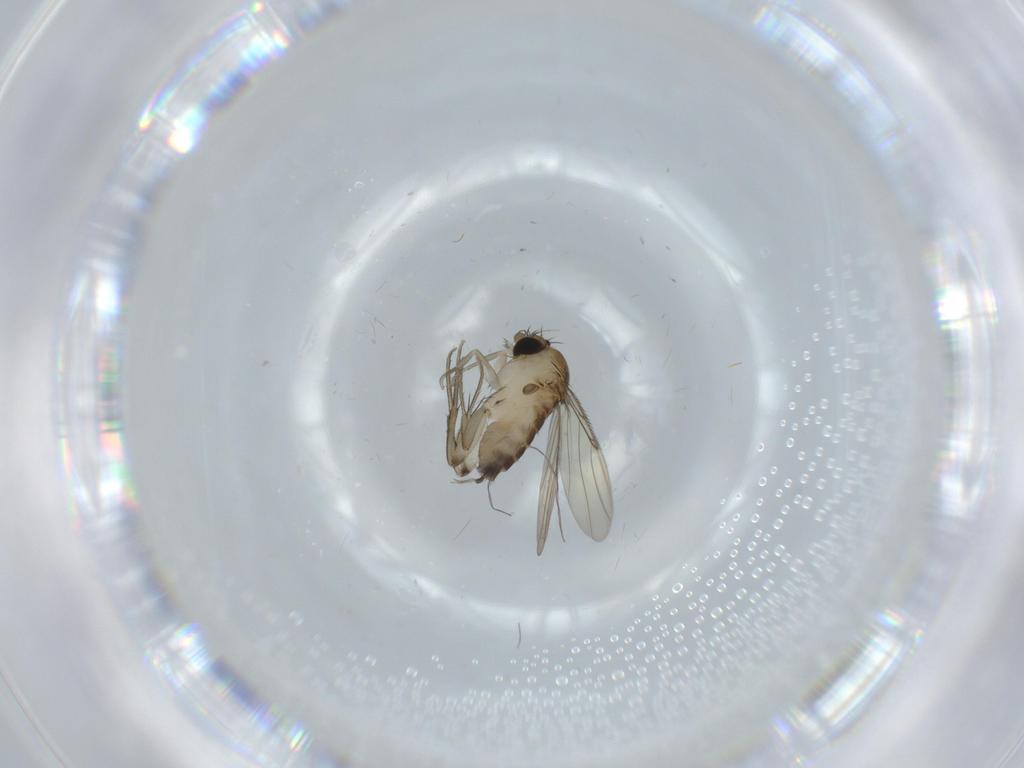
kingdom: Animalia
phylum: Arthropoda
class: Insecta
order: Diptera
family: Phoridae
